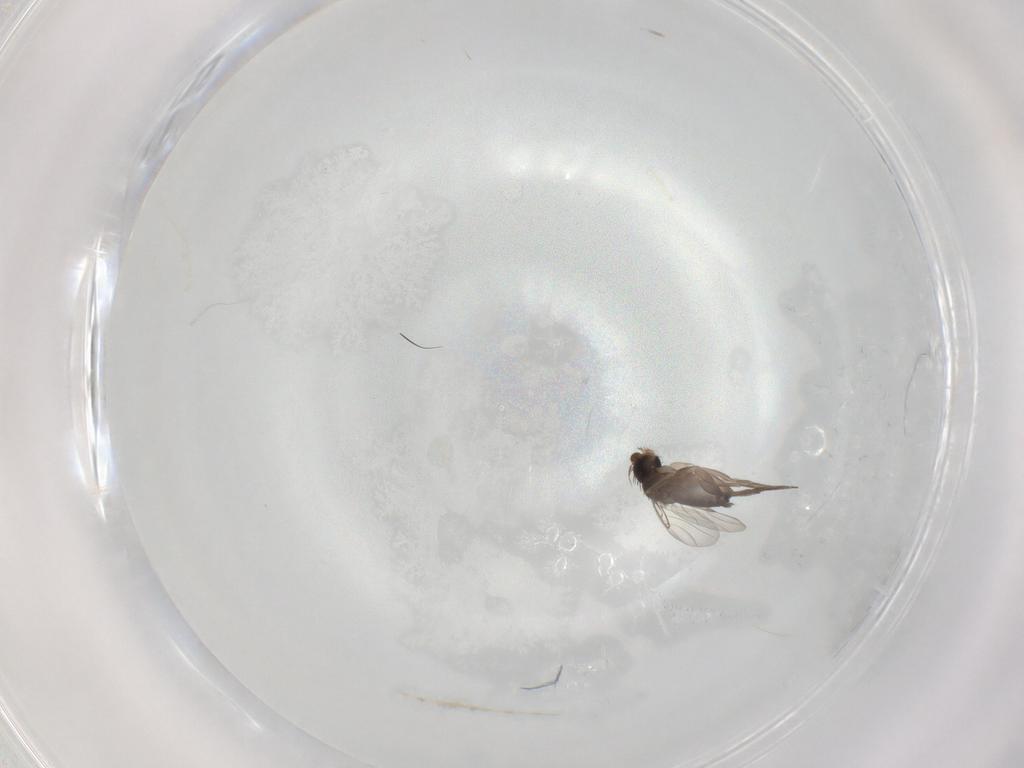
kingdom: Animalia
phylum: Arthropoda
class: Insecta
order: Diptera
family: Phoridae
